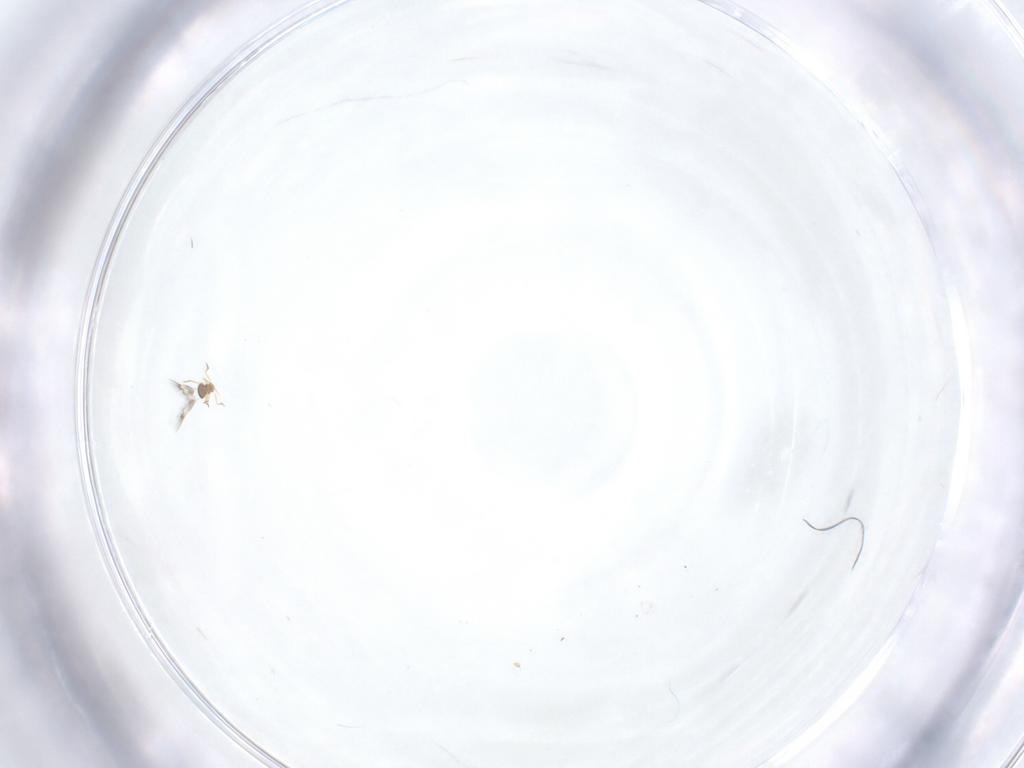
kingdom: Animalia
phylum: Arthropoda
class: Insecta
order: Hymenoptera
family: Mymarommatidae
